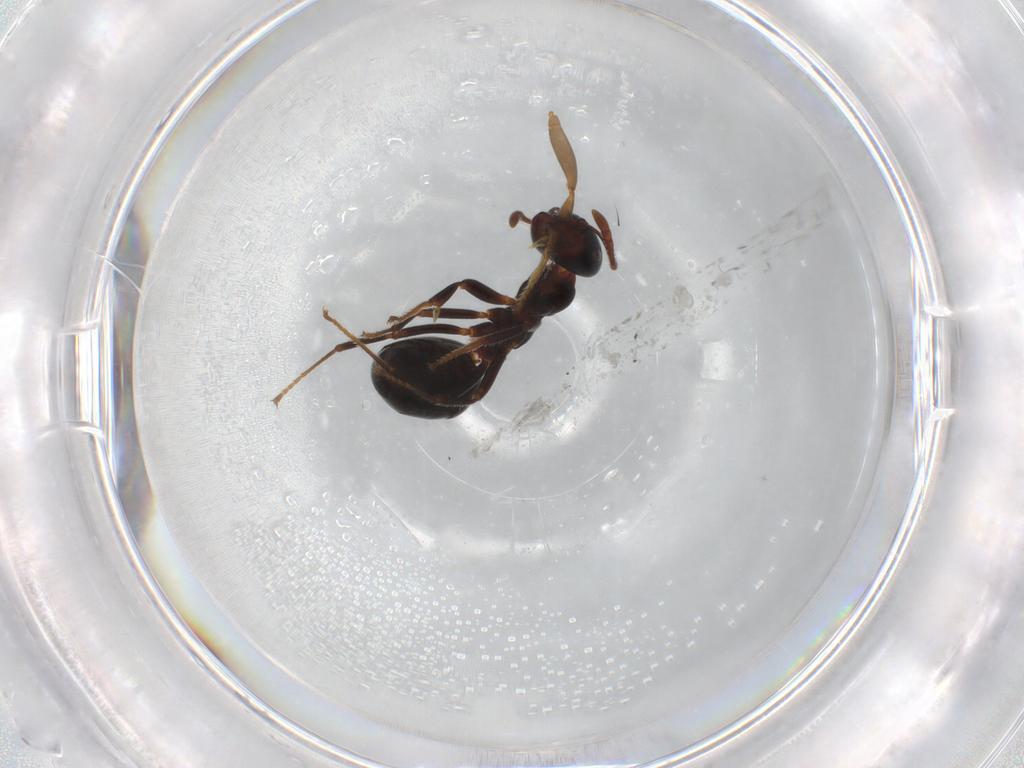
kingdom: Animalia
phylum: Arthropoda
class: Insecta
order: Hymenoptera
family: Formicidae
